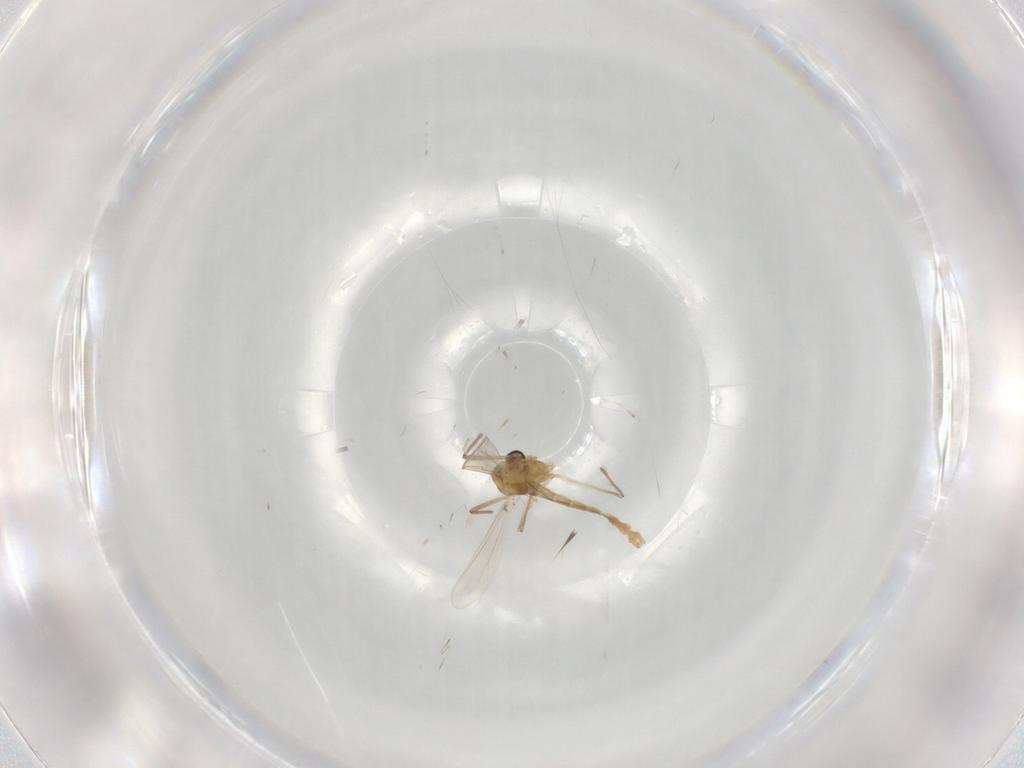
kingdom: Animalia
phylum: Arthropoda
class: Insecta
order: Diptera
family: Chironomidae
